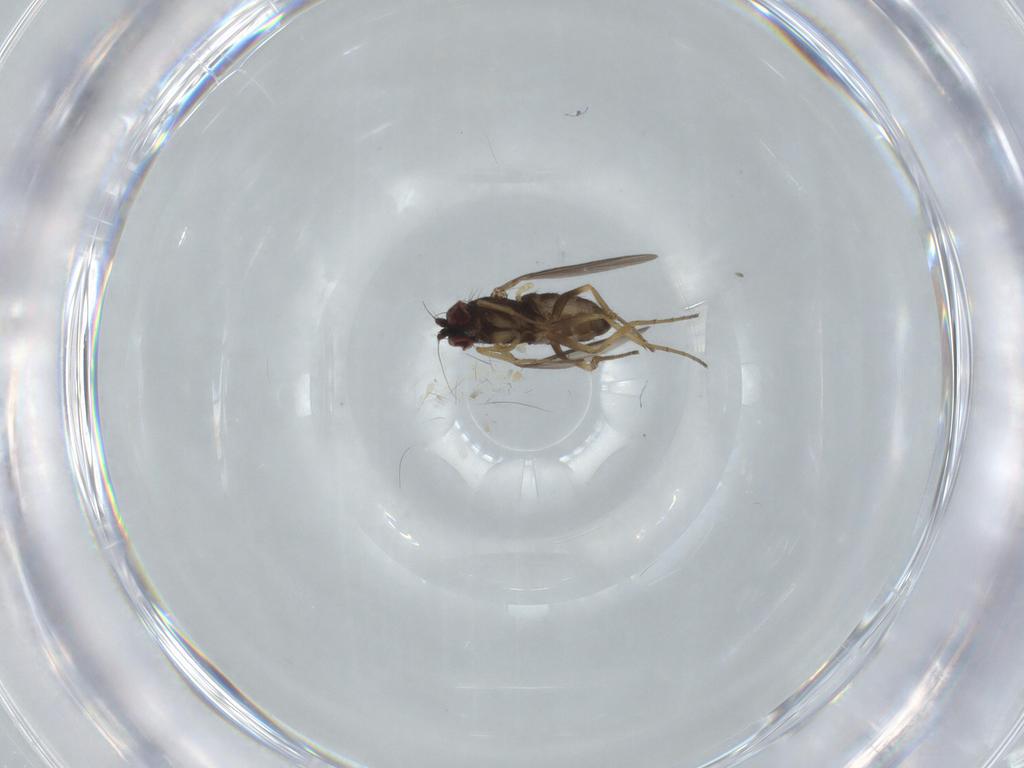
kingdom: Animalia
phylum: Arthropoda
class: Insecta
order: Diptera
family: Dolichopodidae
